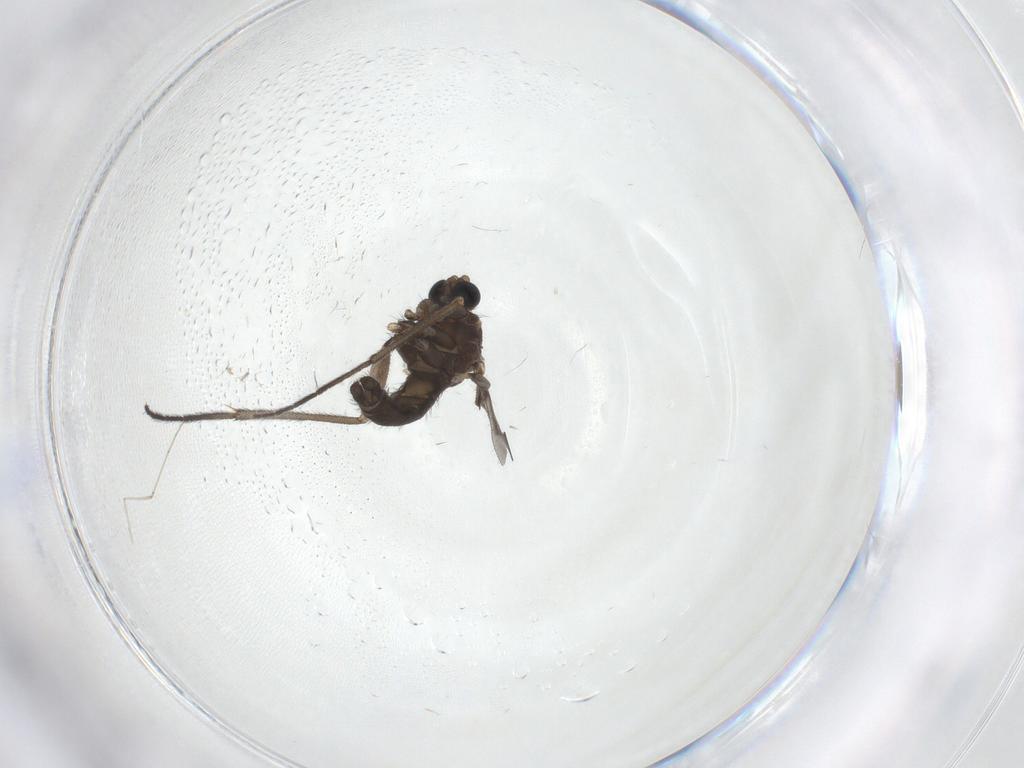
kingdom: Animalia
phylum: Arthropoda
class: Insecta
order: Diptera
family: Sciaridae
